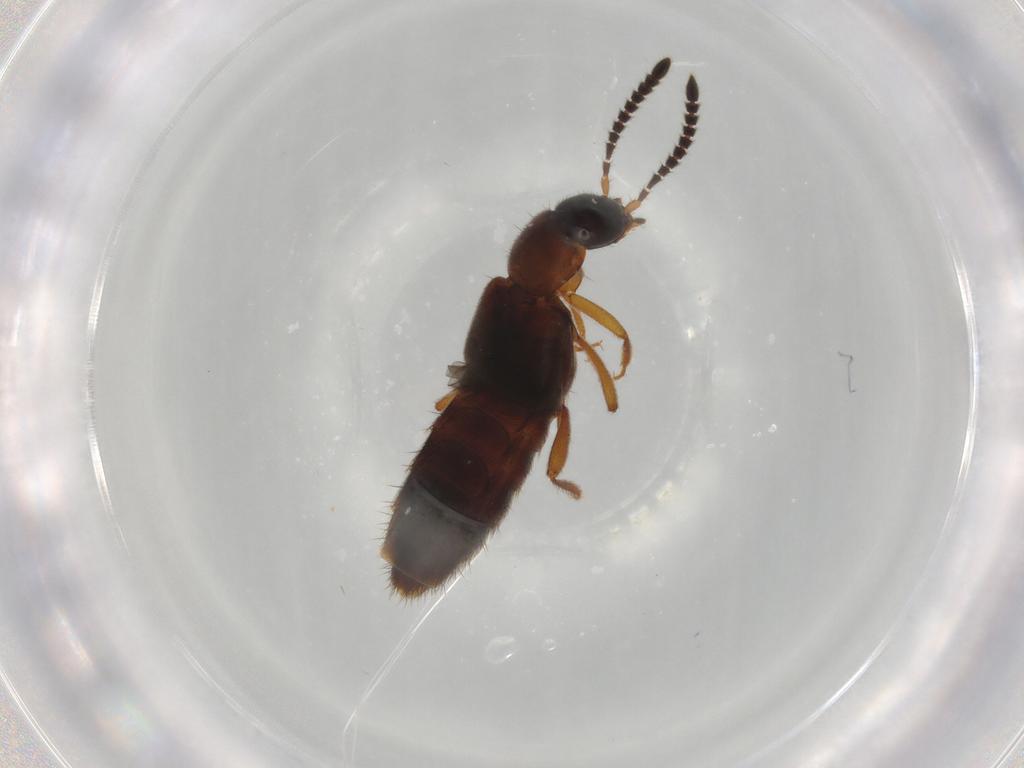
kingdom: Animalia
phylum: Arthropoda
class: Insecta
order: Coleoptera
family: Staphylinidae
